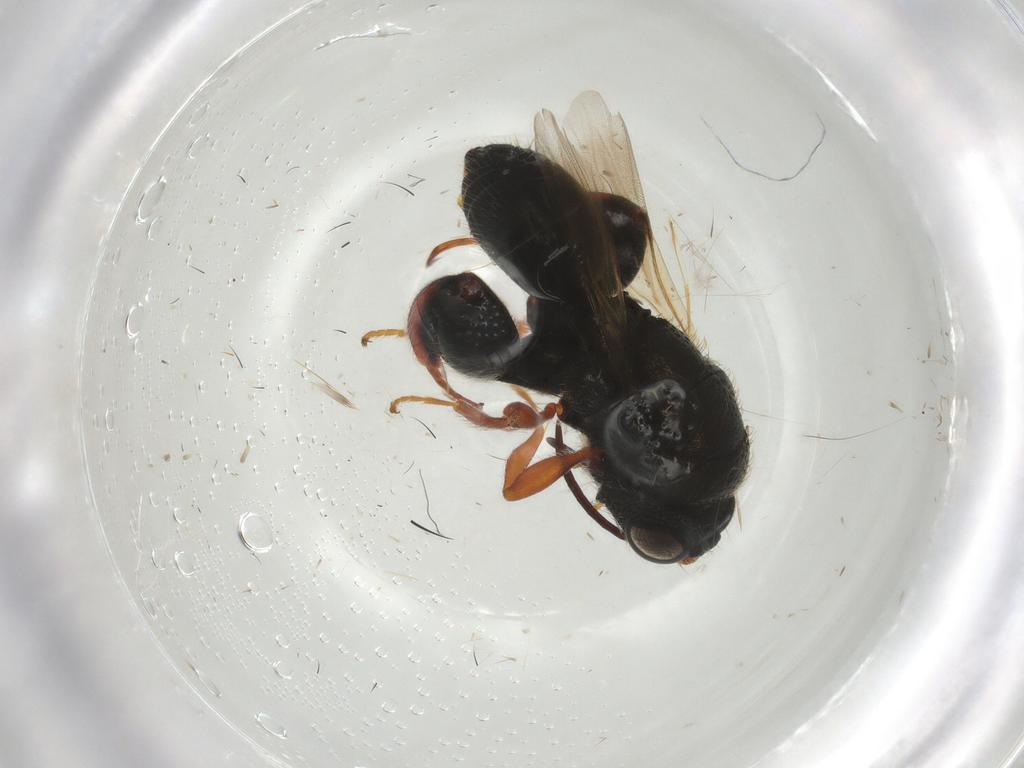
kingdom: Animalia
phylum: Arthropoda
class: Insecta
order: Hymenoptera
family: Chalcididae
